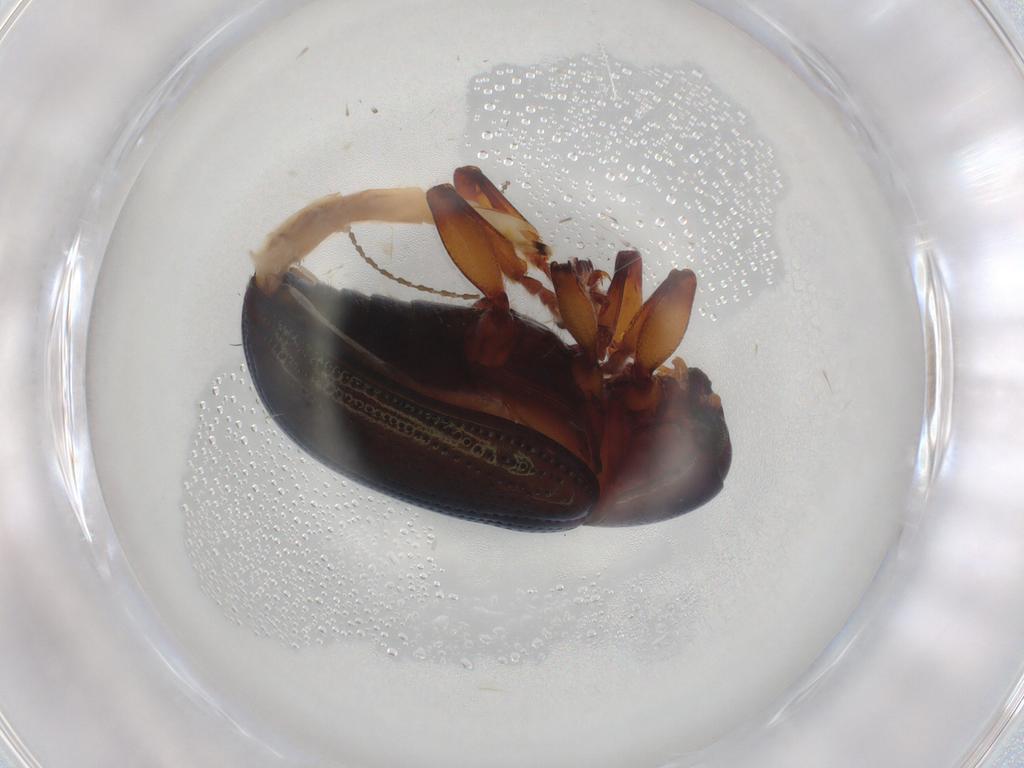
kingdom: Animalia
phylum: Arthropoda
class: Insecta
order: Coleoptera
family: Chrysomelidae
